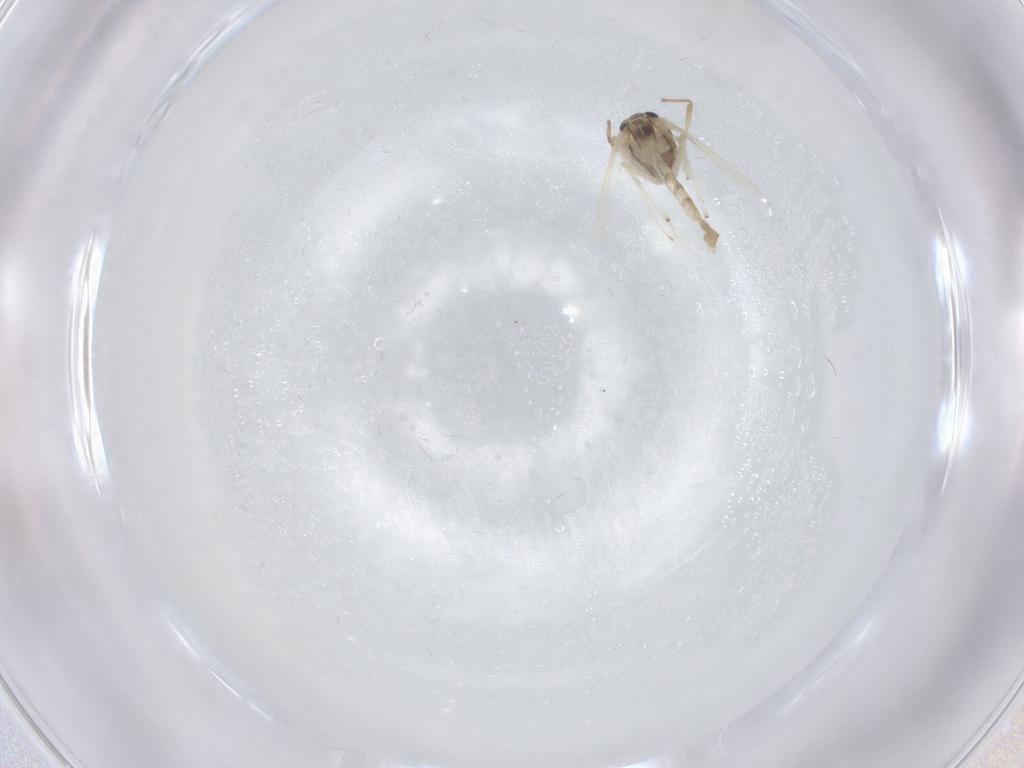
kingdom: Animalia
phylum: Arthropoda
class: Insecta
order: Diptera
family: Chironomidae
